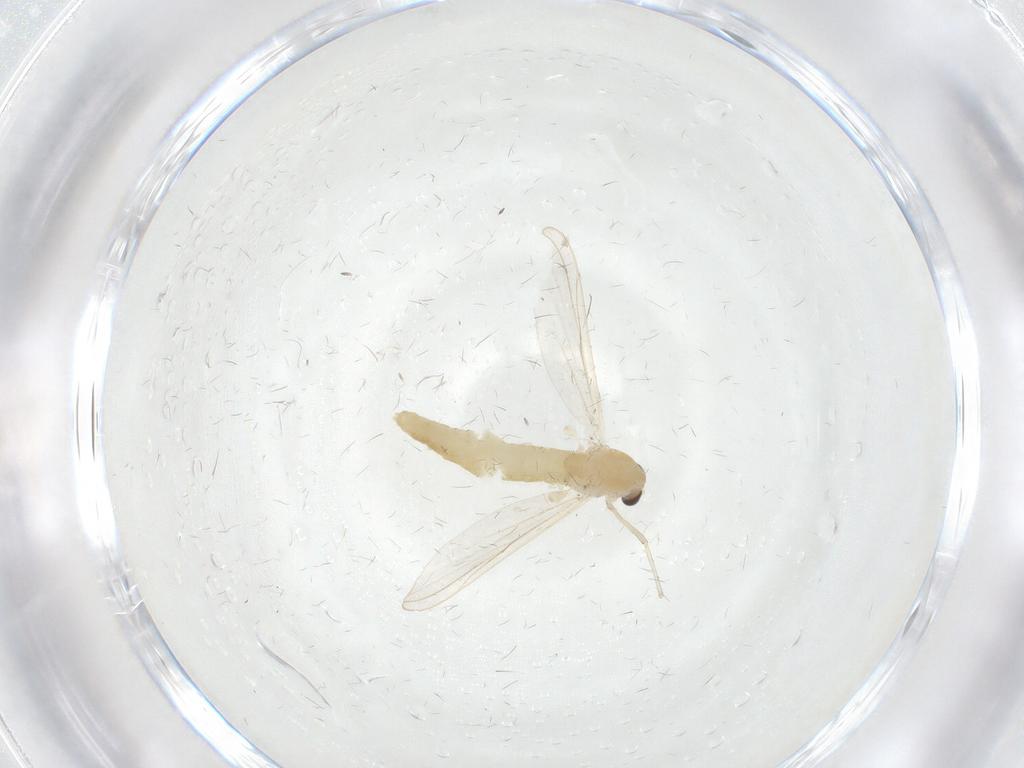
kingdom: Animalia
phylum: Arthropoda
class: Insecta
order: Diptera
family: Chironomidae
